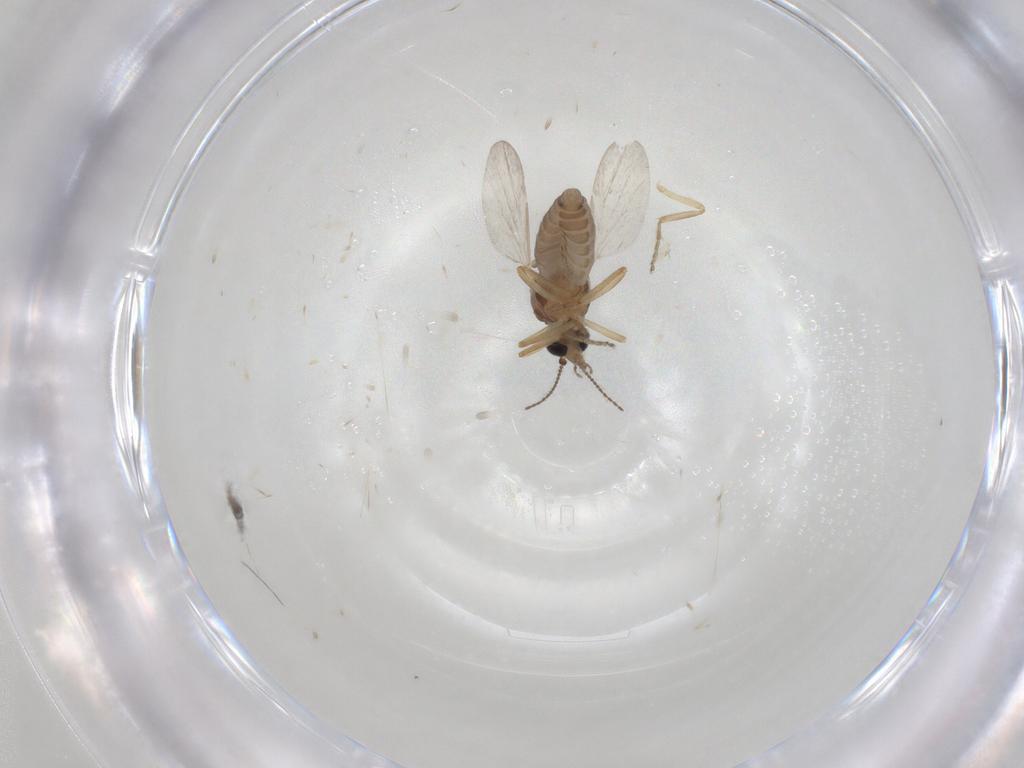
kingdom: Animalia
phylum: Arthropoda
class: Insecta
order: Diptera
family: Ceratopogonidae
